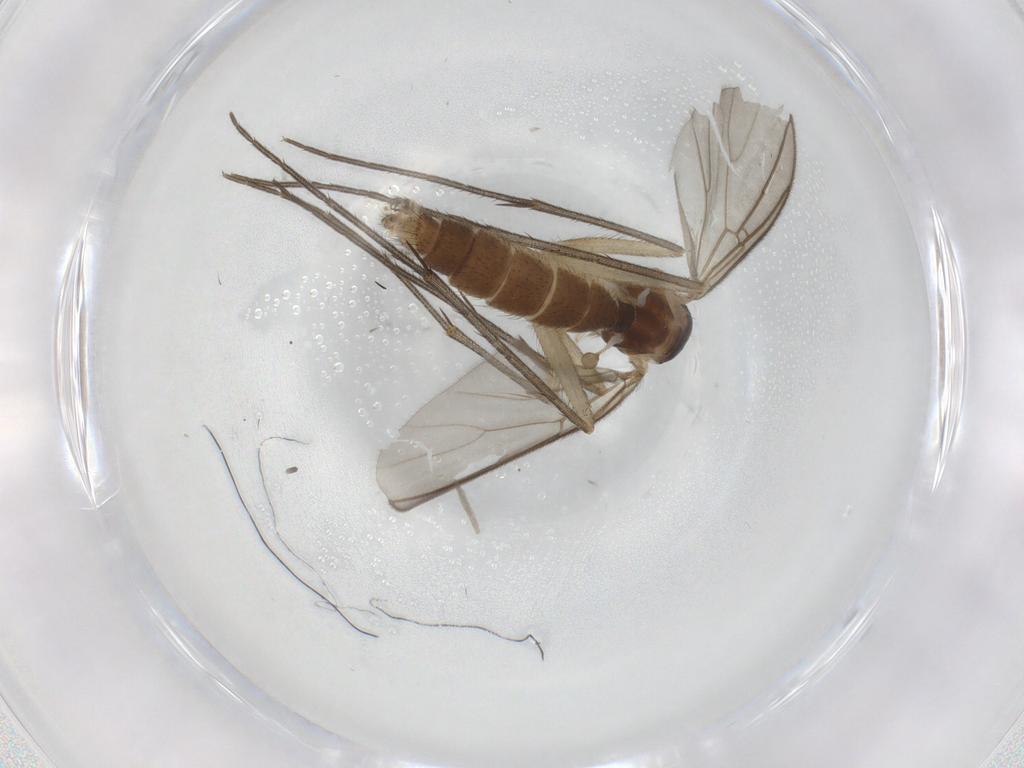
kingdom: Animalia
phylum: Arthropoda
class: Insecta
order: Diptera
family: Mycetophilidae
